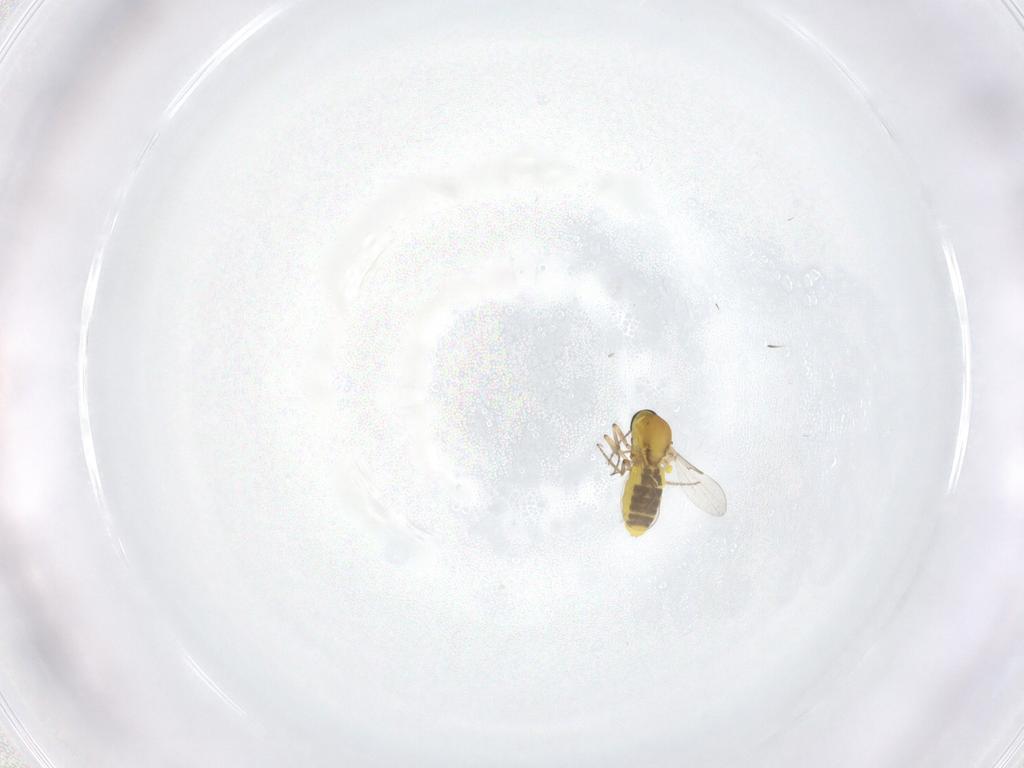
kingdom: Animalia
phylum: Arthropoda
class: Insecta
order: Diptera
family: Ceratopogonidae
